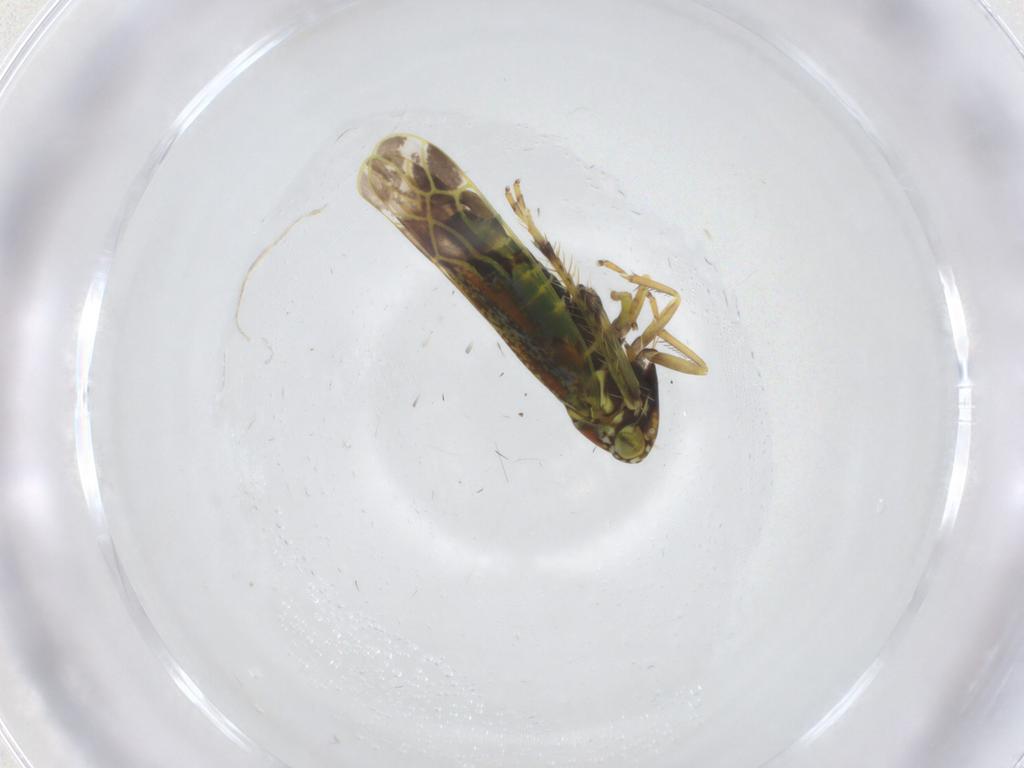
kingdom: Animalia
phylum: Arthropoda
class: Insecta
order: Hemiptera
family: Cicadellidae
